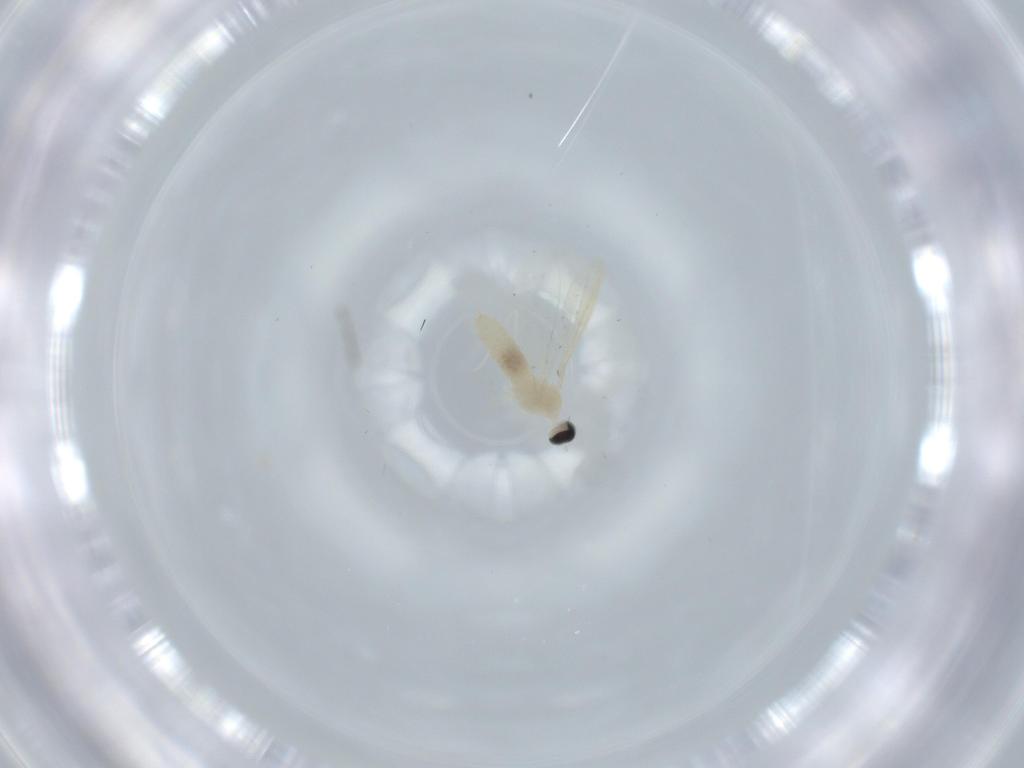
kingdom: Animalia
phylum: Arthropoda
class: Insecta
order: Diptera
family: Cecidomyiidae
